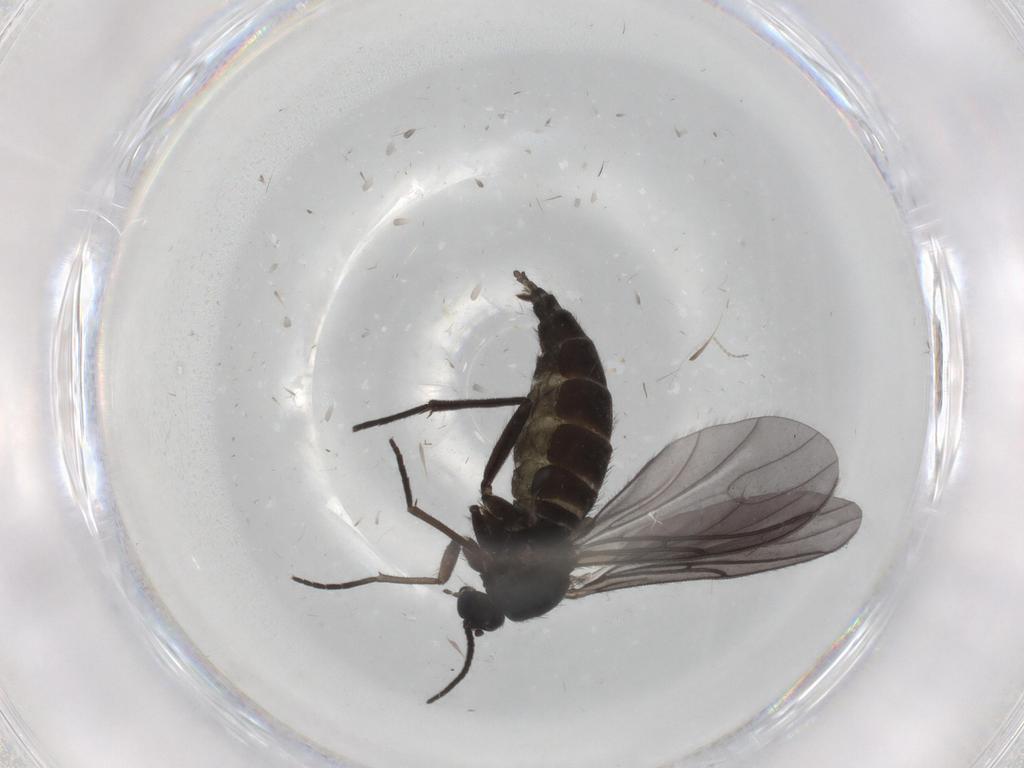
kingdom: Animalia
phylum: Arthropoda
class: Insecta
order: Diptera
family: Sciaridae
